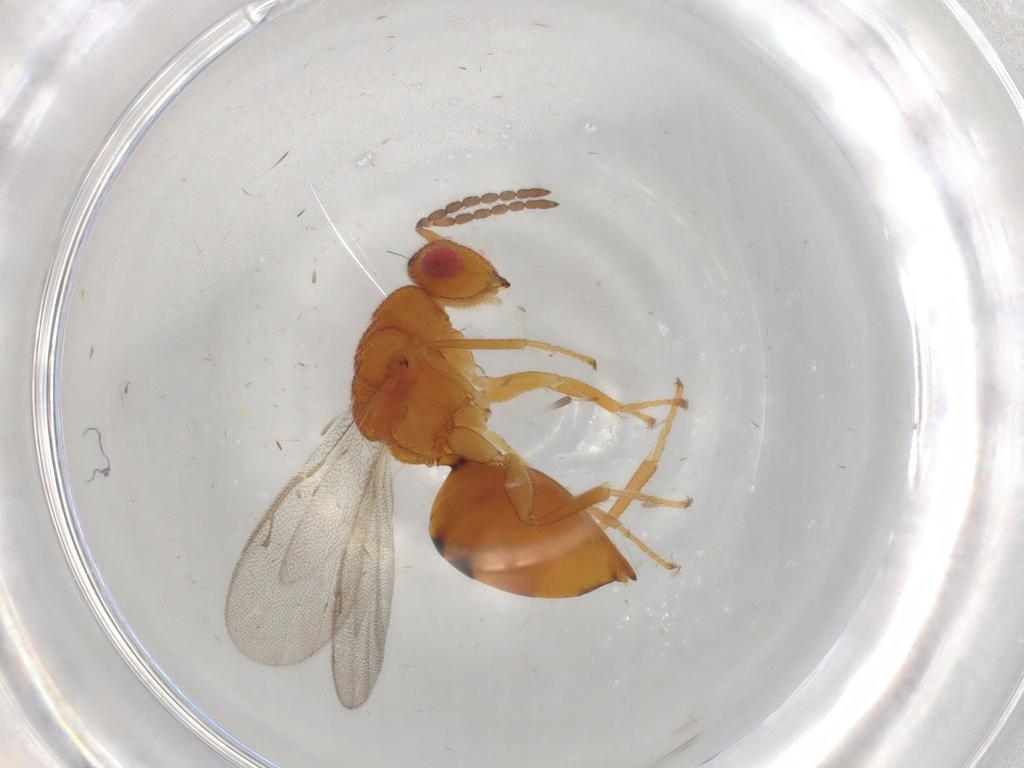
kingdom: Animalia
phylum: Arthropoda
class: Insecta
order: Hymenoptera
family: Eurytomidae
